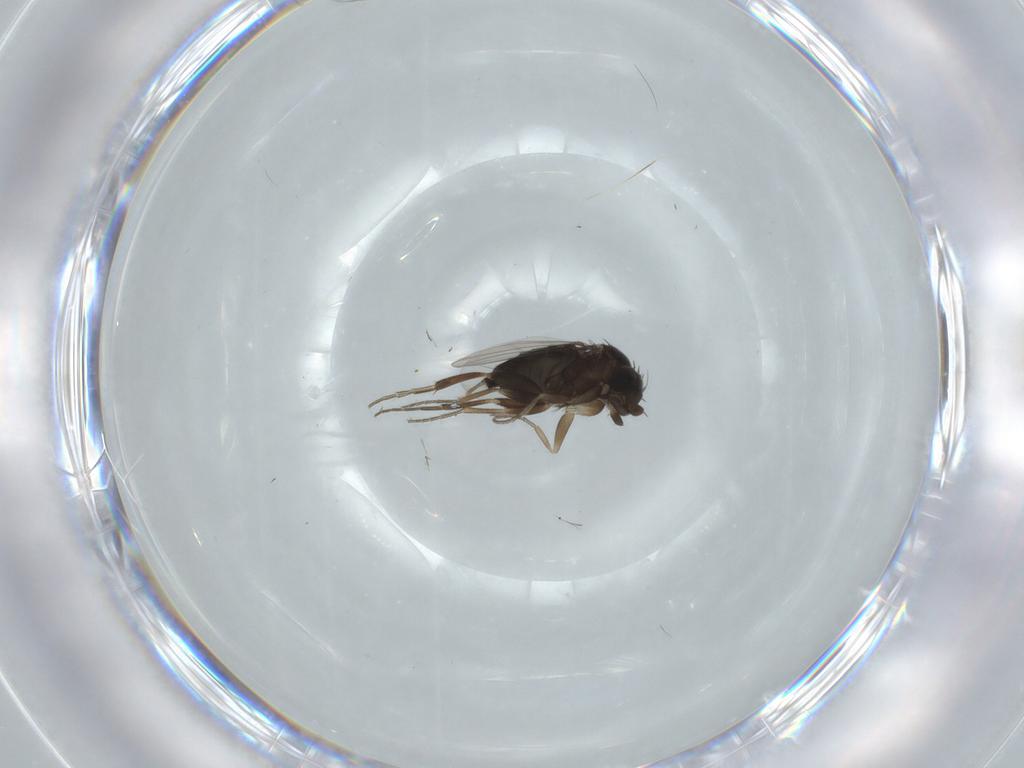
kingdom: Animalia
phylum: Arthropoda
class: Insecta
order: Diptera
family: Phoridae
